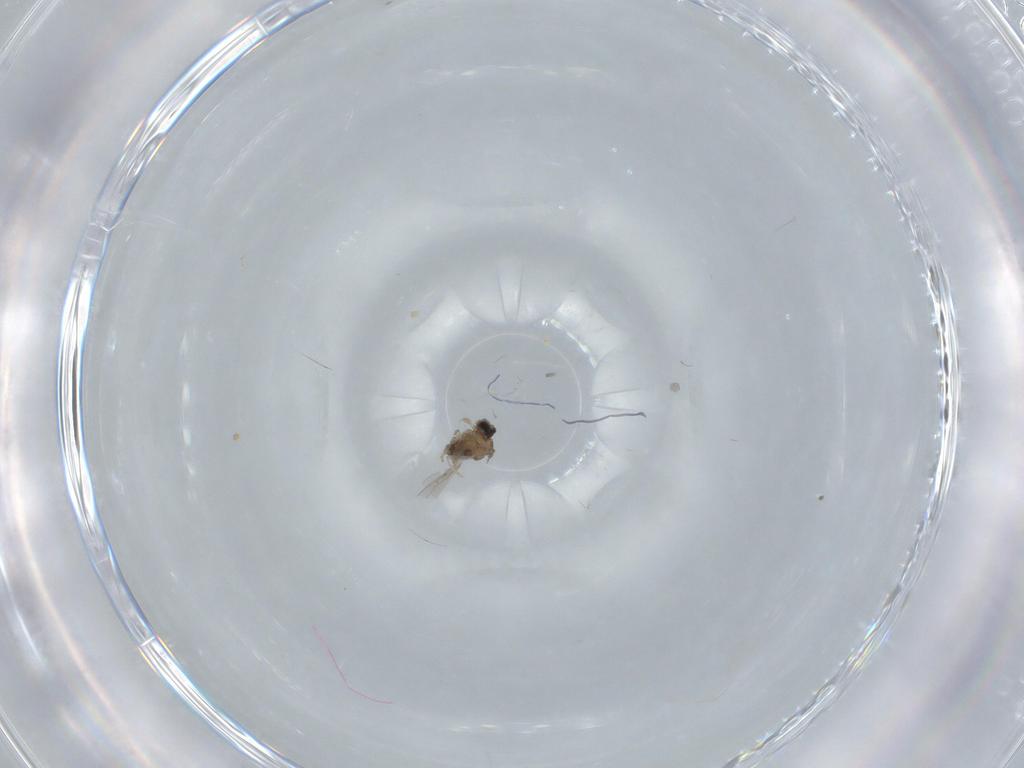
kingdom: Animalia
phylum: Arthropoda
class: Insecta
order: Diptera
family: Cecidomyiidae
